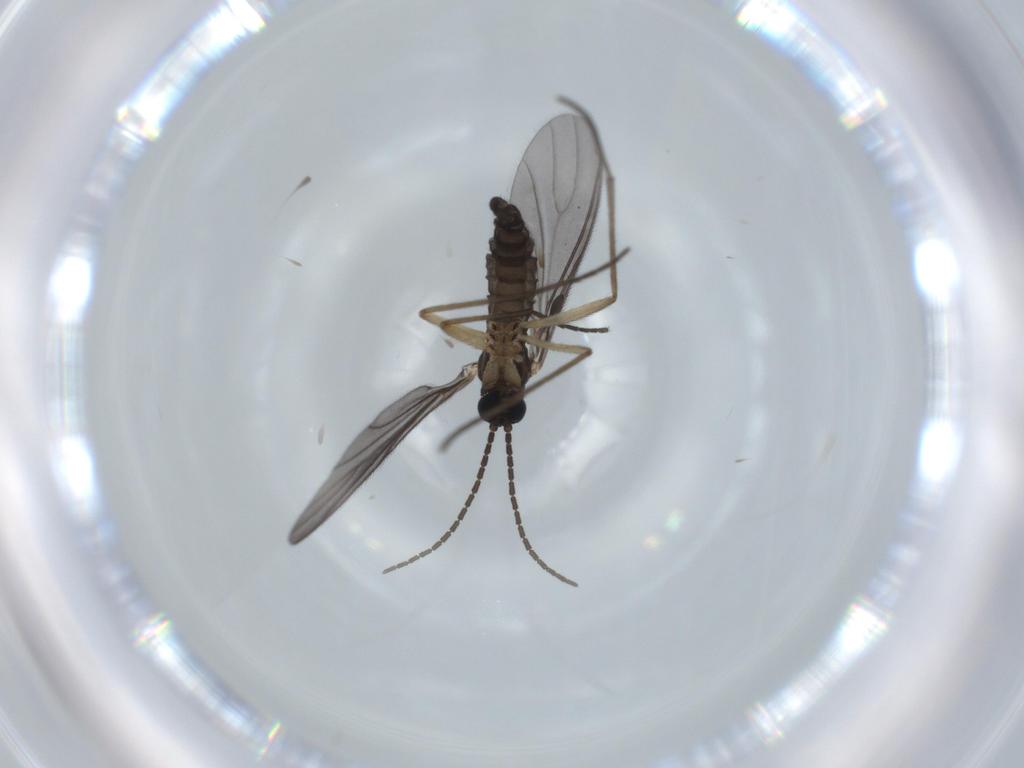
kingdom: Animalia
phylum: Arthropoda
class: Insecta
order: Diptera
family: Sciaridae
